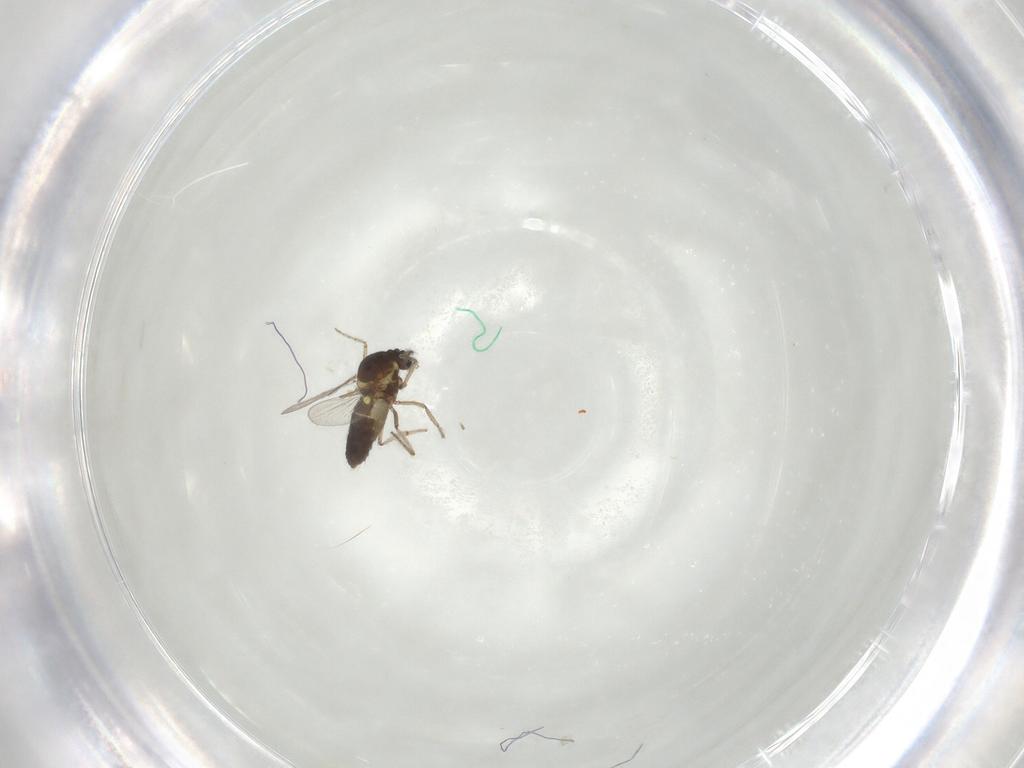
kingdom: Animalia
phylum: Arthropoda
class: Insecta
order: Diptera
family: Ceratopogonidae
